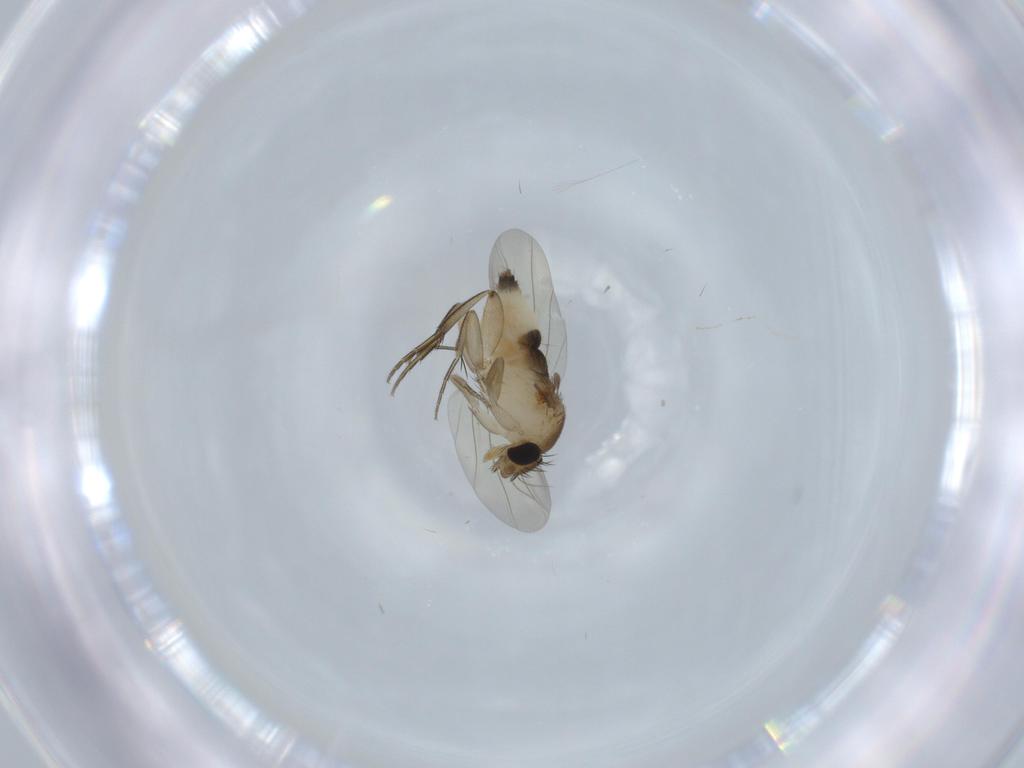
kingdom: Animalia
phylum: Arthropoda
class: Insecta
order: Diptera
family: Phoridae
